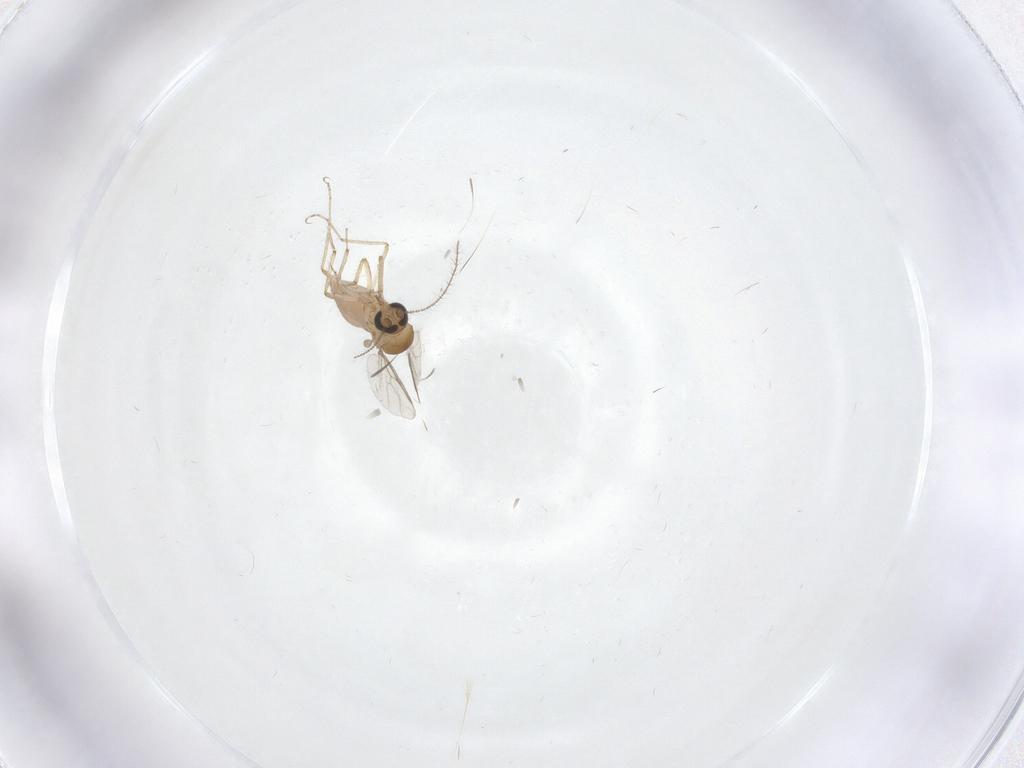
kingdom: Animalia
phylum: Arthropoda
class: Insecta
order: Diptera
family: Ceratopogonidae
